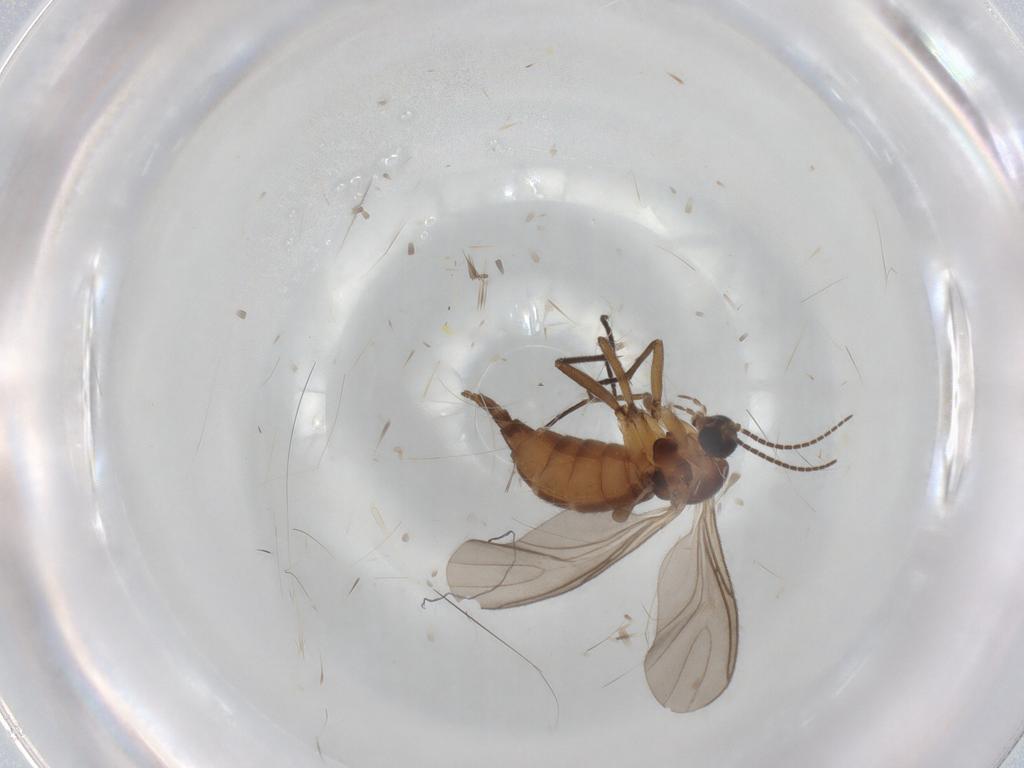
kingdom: Animalia
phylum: Arthropoda
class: Insecta
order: Diptera
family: Sciaridae
